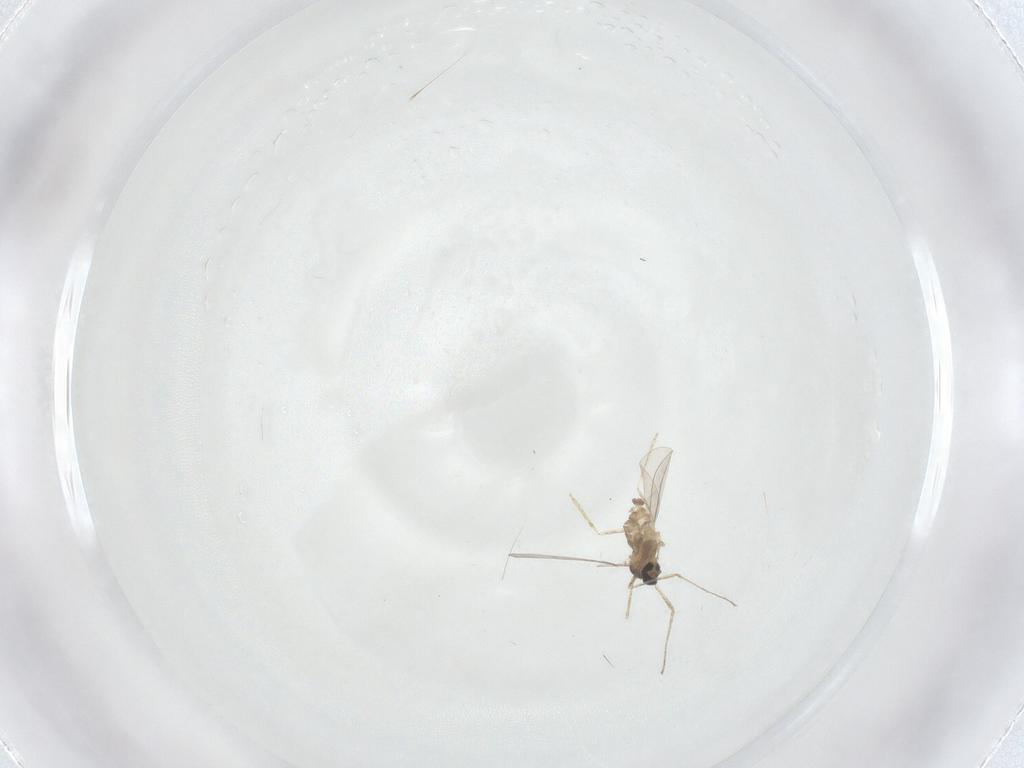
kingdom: Animalia
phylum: Arthropoda
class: Insecta
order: Diptera
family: Cecidomyiidae
